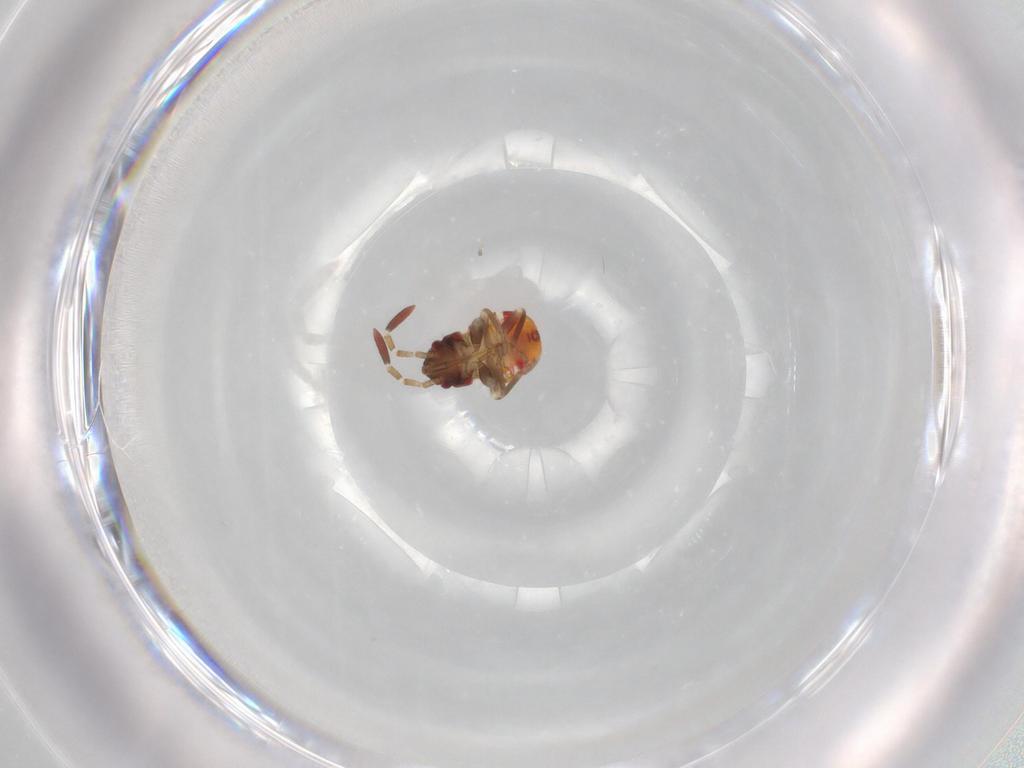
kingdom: Animalia
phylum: Arthropoda
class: Insecta
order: Hemiptera
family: Rhyparochromidae
